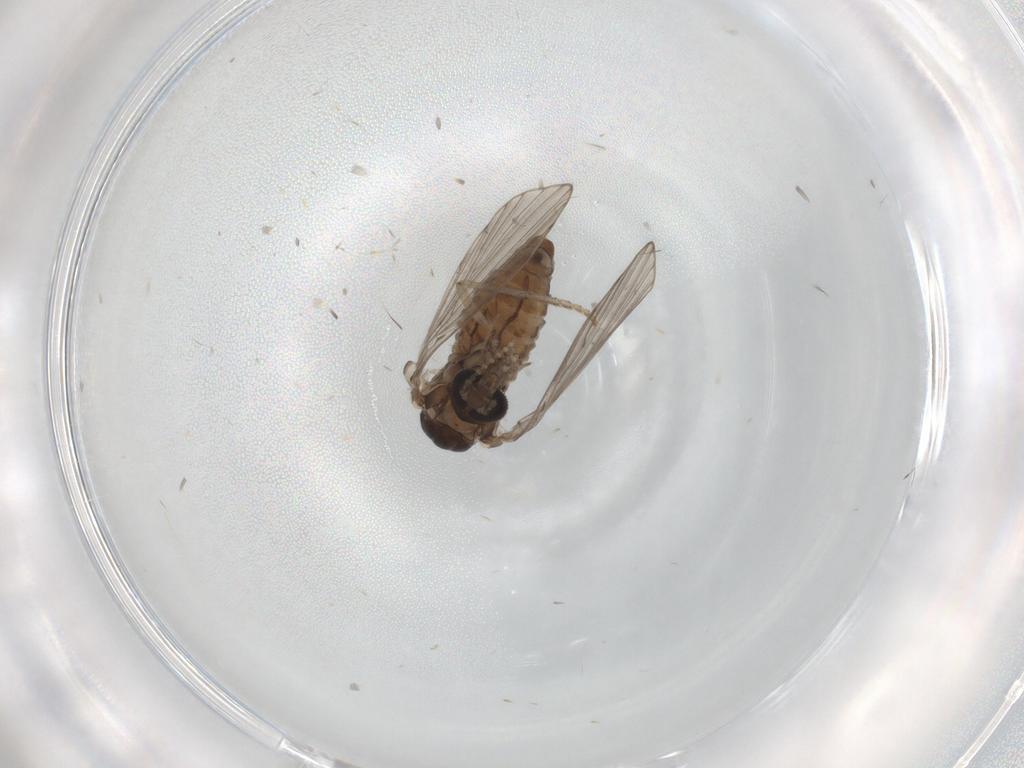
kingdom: Animalia
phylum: Arthropoda
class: Insecta
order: Diptera
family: Psychodidae
